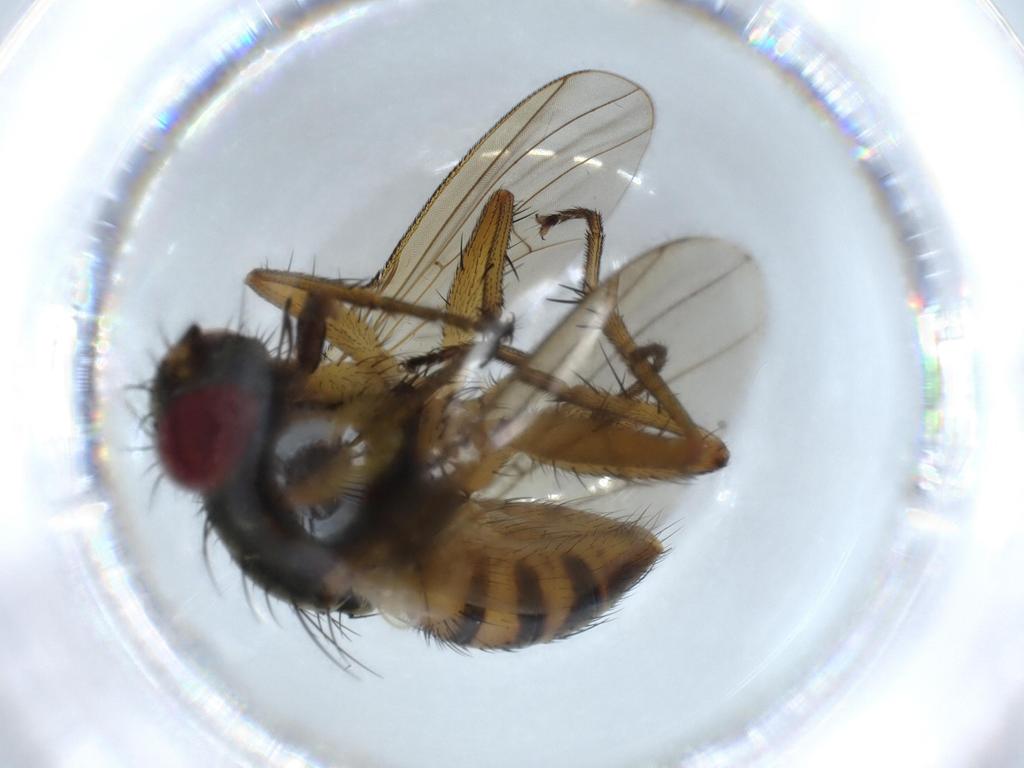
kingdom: Animalia
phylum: Arthropoda
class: Insecta
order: Diptera
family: Muscidae
